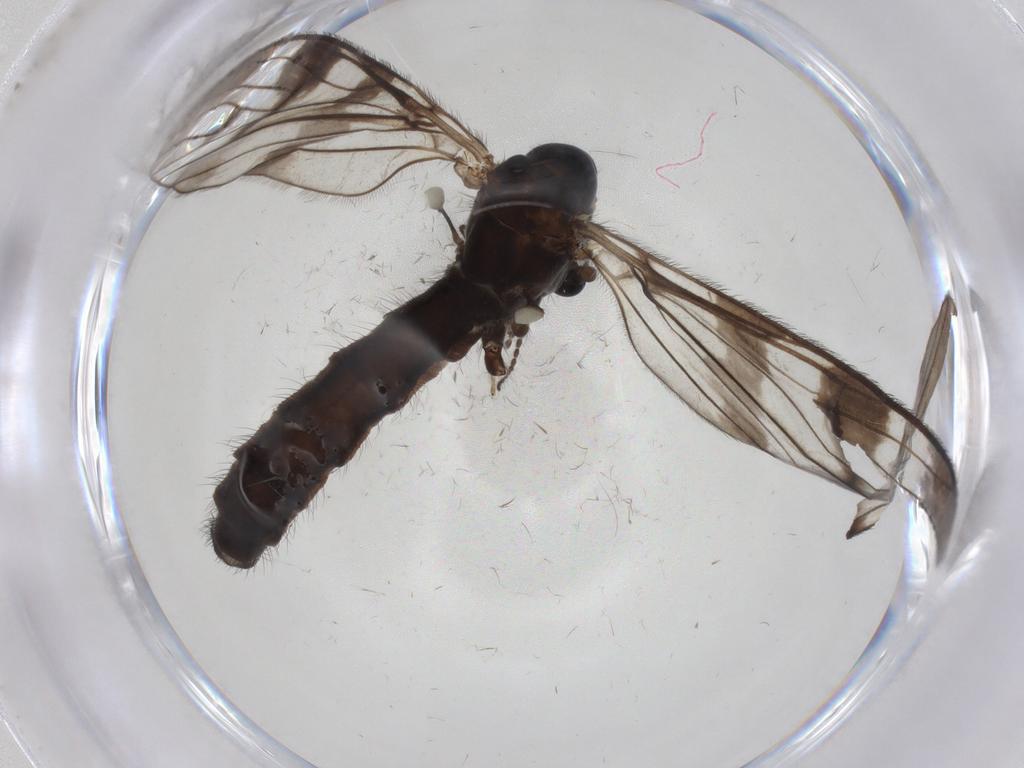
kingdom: Animalia
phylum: Arthropoda
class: Insecta
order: Diptera
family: Limoniidae
